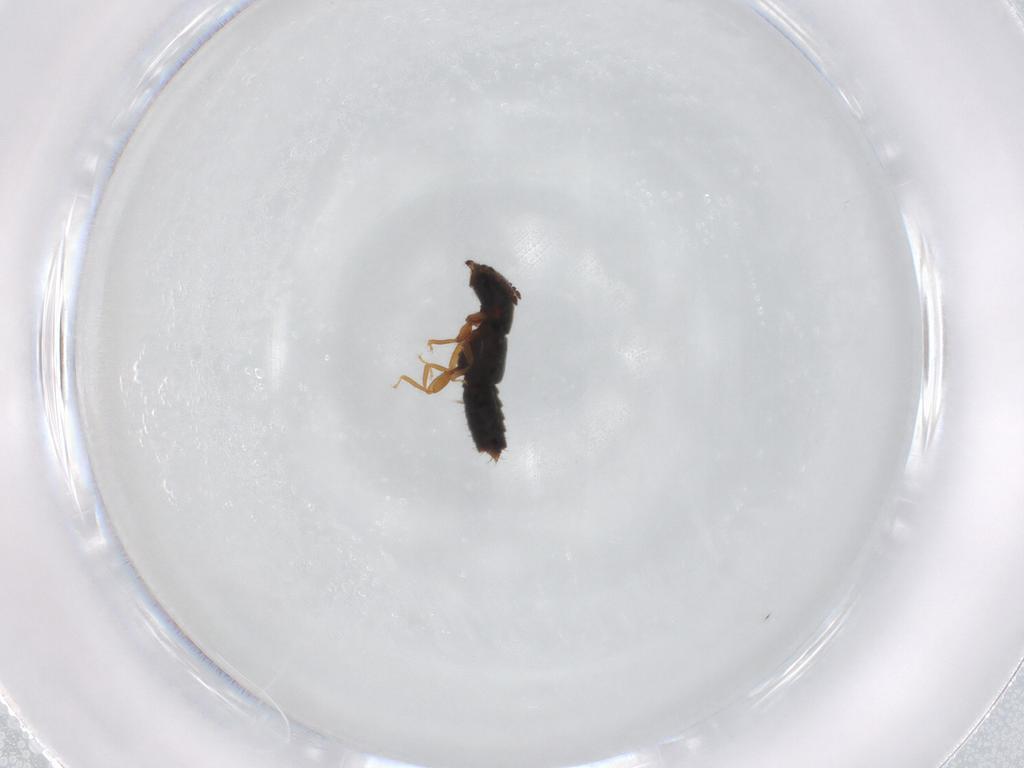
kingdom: Animalia
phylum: Arthropoda
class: Insecta
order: Coleoptera
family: Staphylinidae
